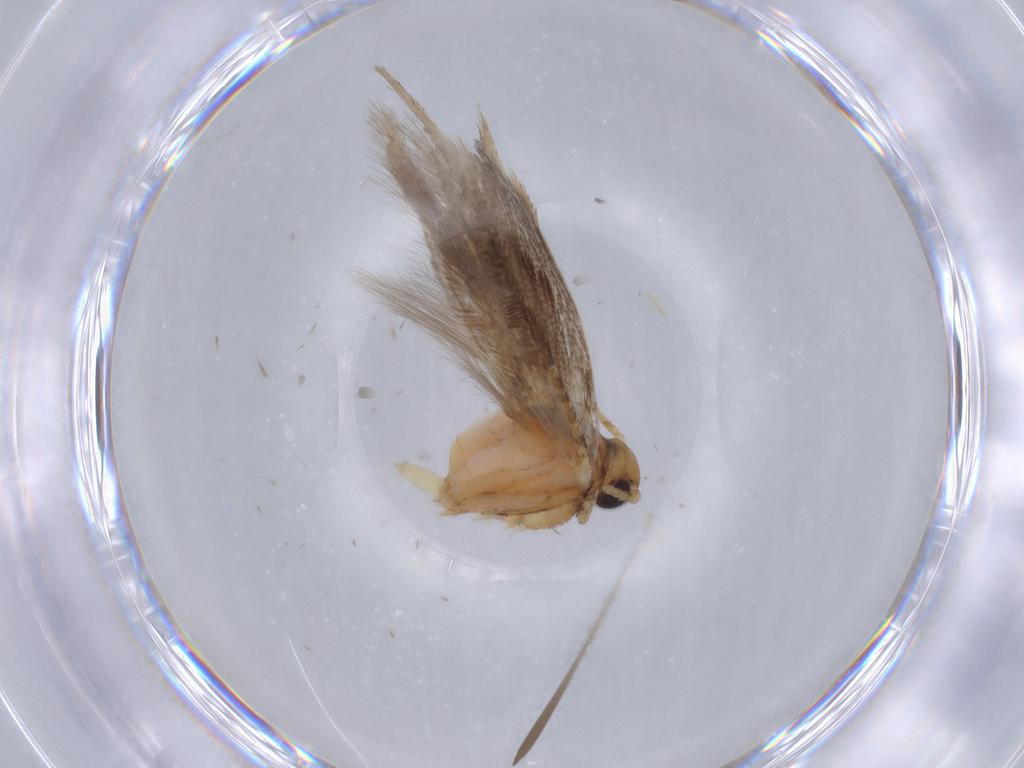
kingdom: Animalia
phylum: Arthropoda
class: Insecta
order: Lepidoptera
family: Gelechiidae
